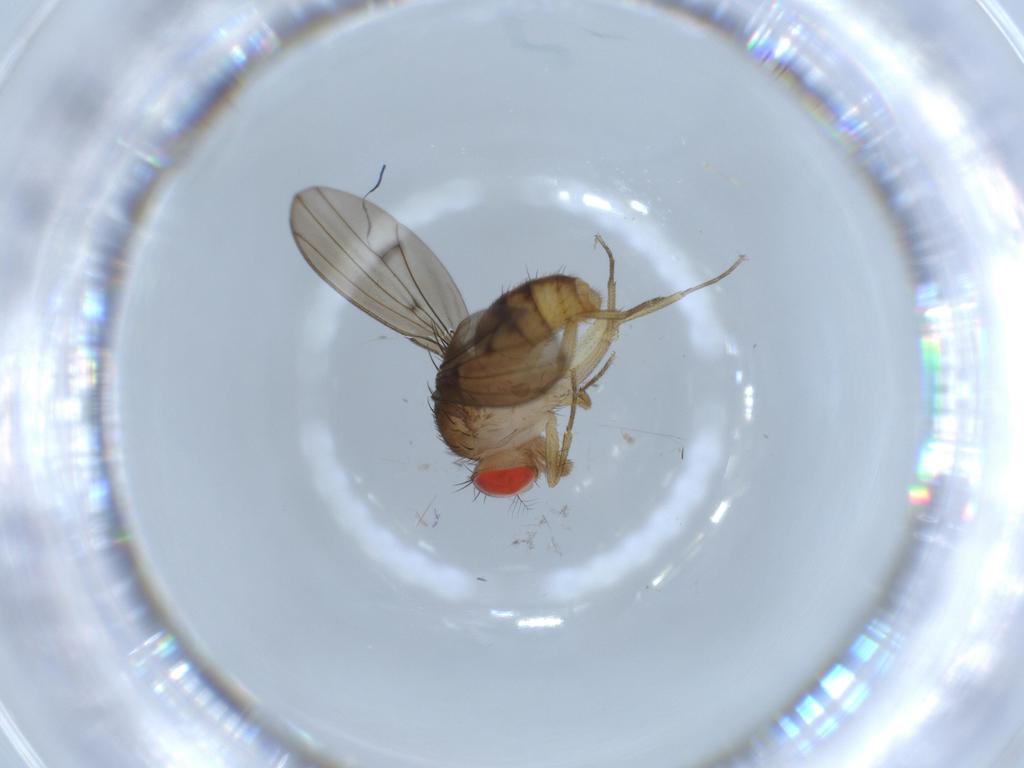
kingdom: Animalia
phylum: Arthropoda
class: Insecta
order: Diptera
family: Drosophilidae
